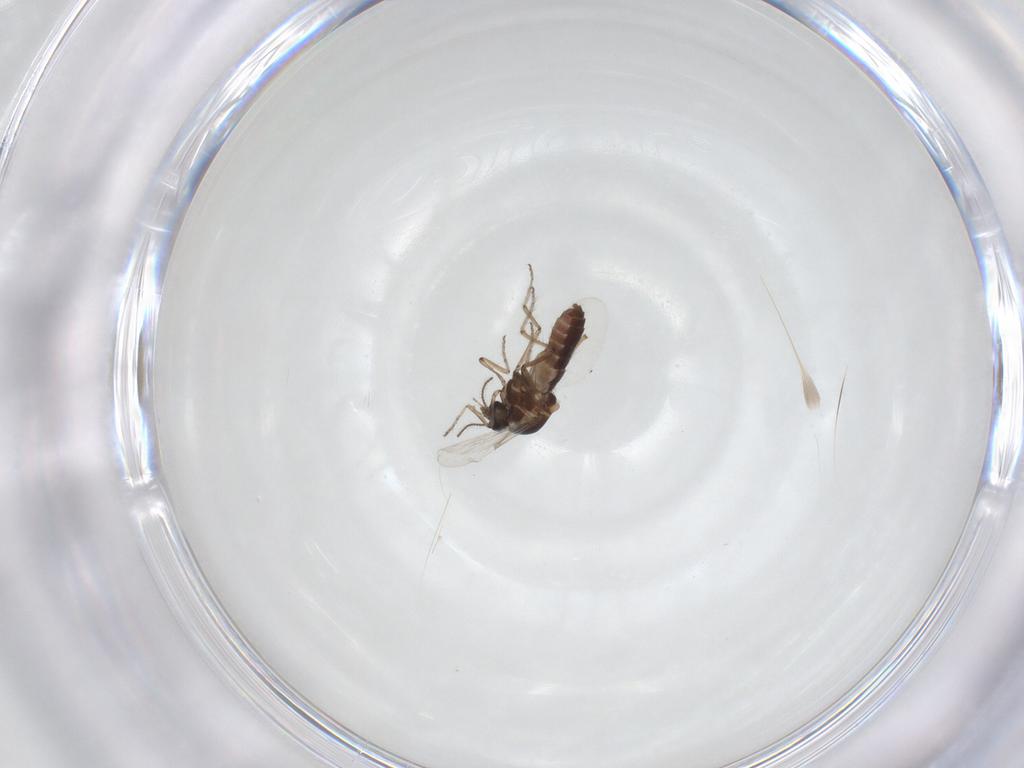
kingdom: Animalia
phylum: Arthropoda
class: Insecta
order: Diptera
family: Ceratopogonidae
